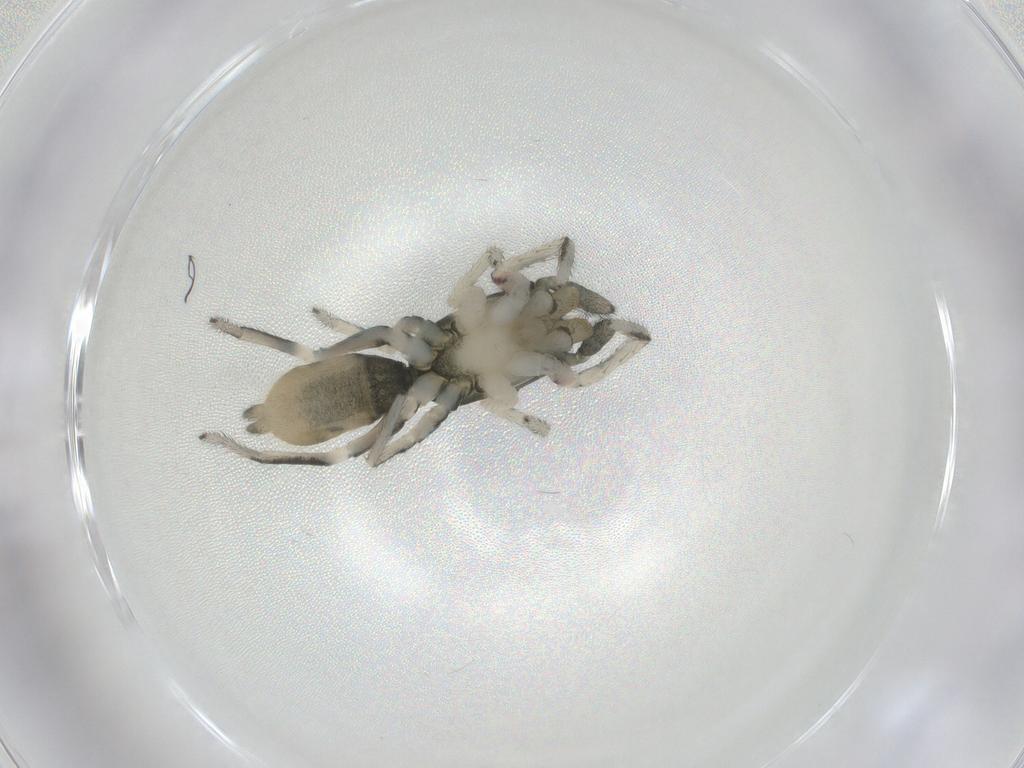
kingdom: Animalia
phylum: Arthropoda
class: Arachnida
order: Araneae
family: Salticidae
